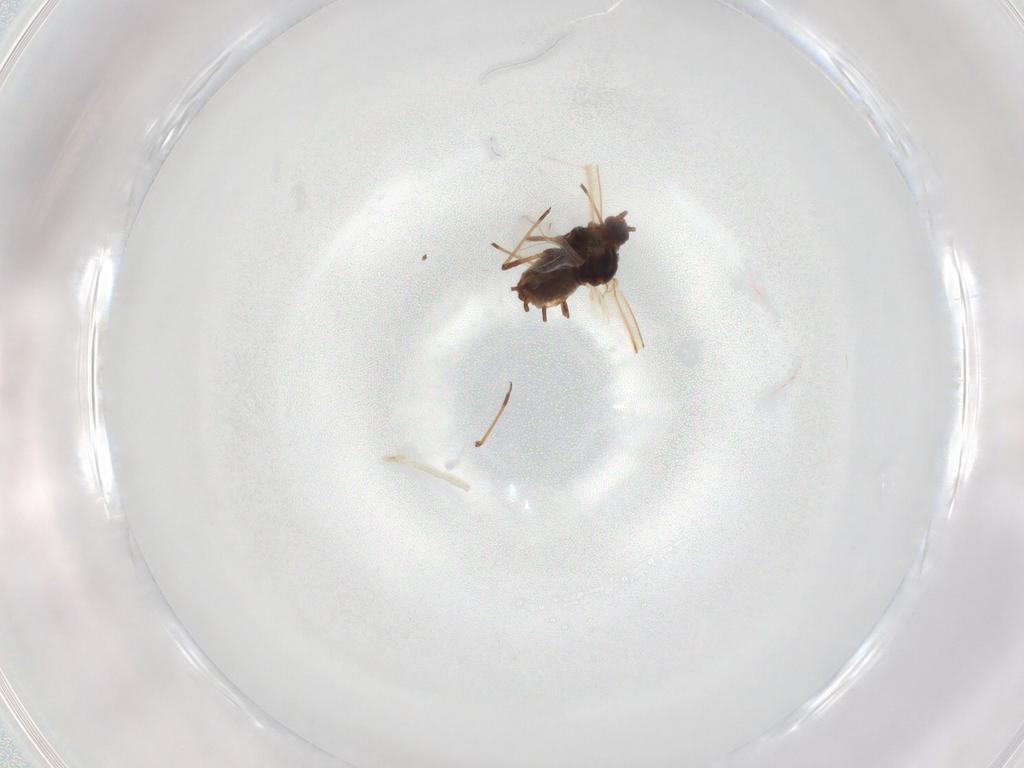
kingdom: Animalia
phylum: Arthropoda
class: Insecta
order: Hemiptera
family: Aphididae
